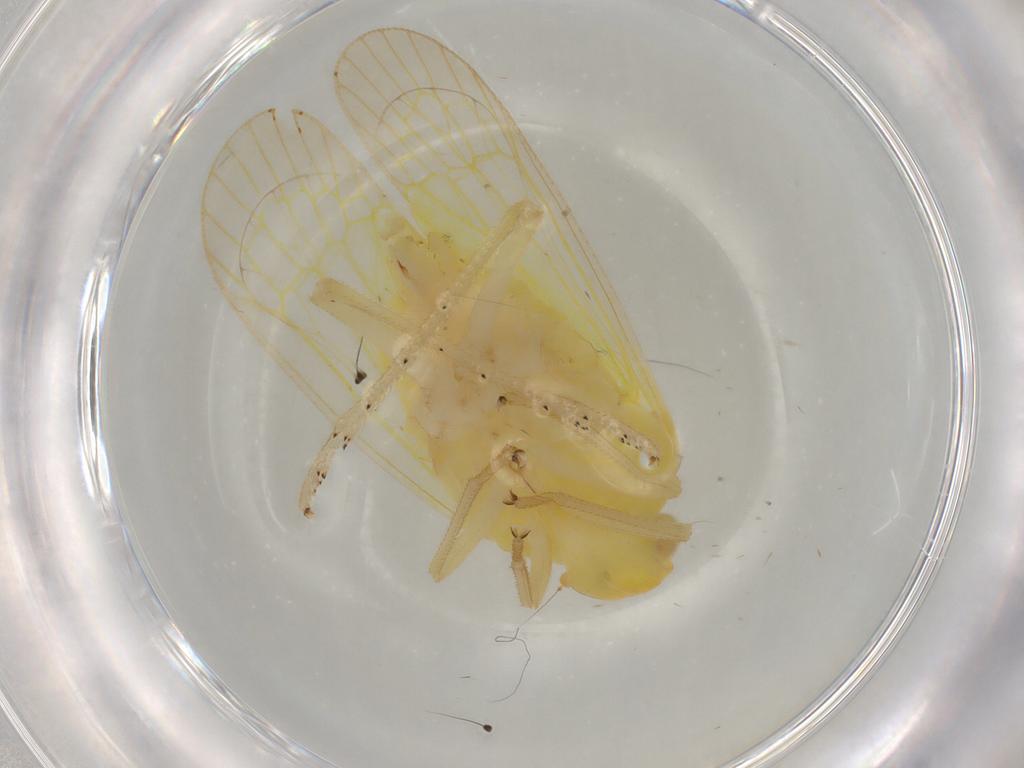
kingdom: Animalia
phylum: Arthropoda
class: Insecta
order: Hemiptera
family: Tropiduchidae
